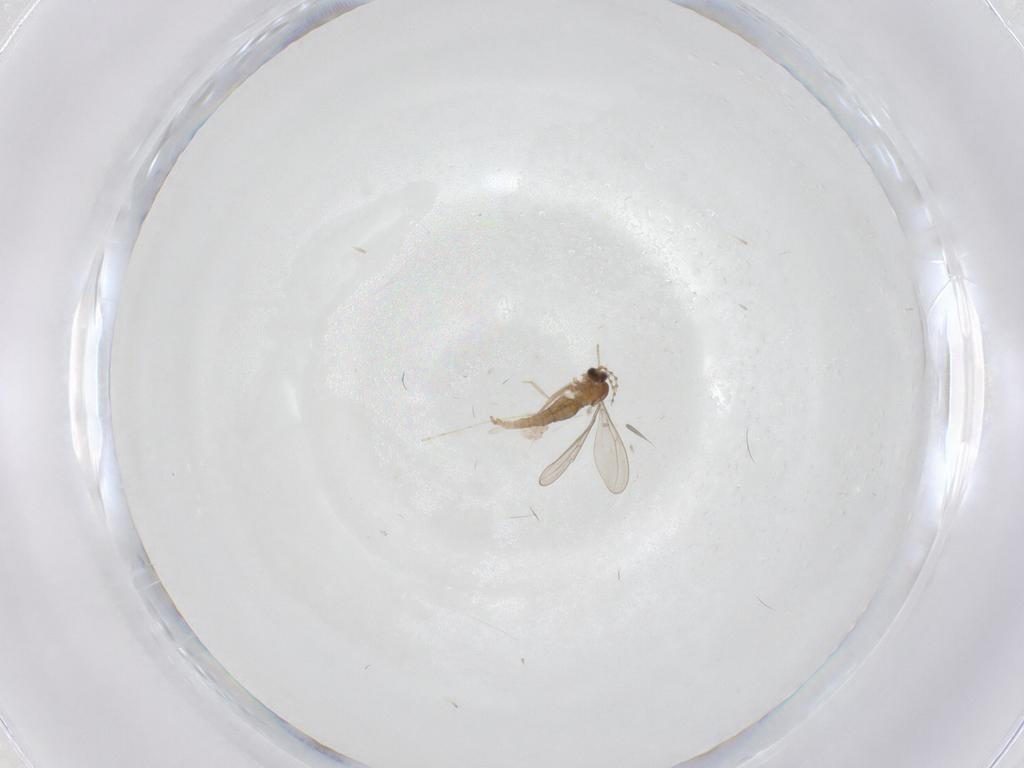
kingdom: Animalia
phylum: Arthropoda
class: Insecta
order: Diptera
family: Cecidomyiidae
